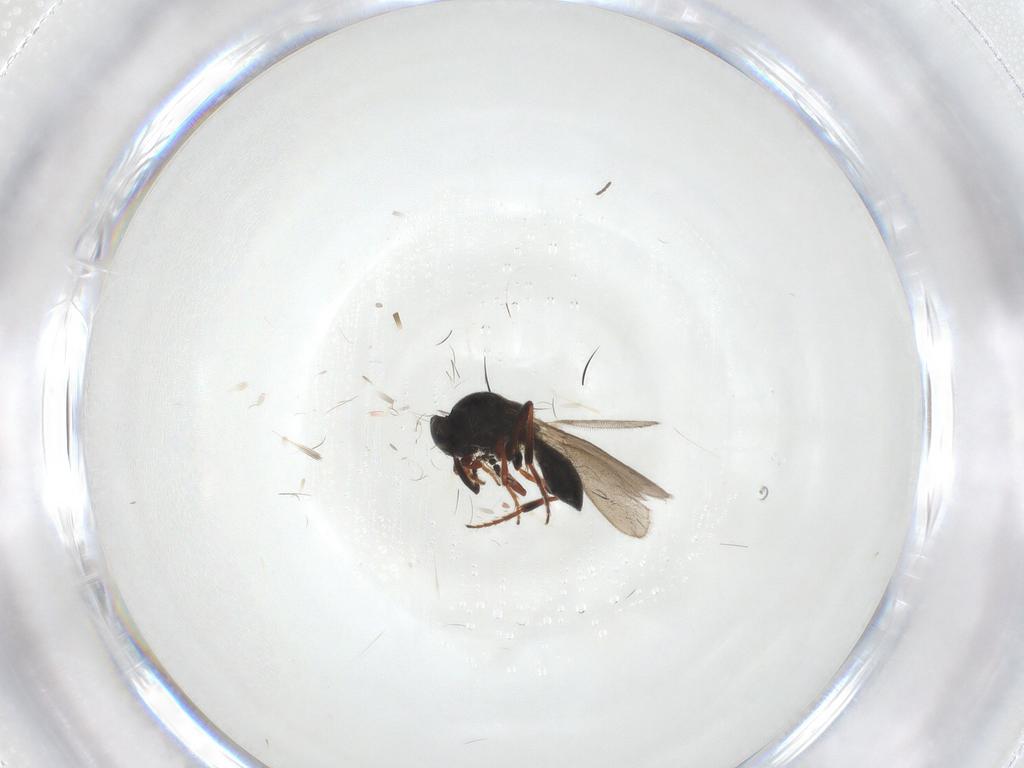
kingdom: Animalia
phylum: Arthropoda
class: Insecta
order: Hymenoptera
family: Platygastridae
